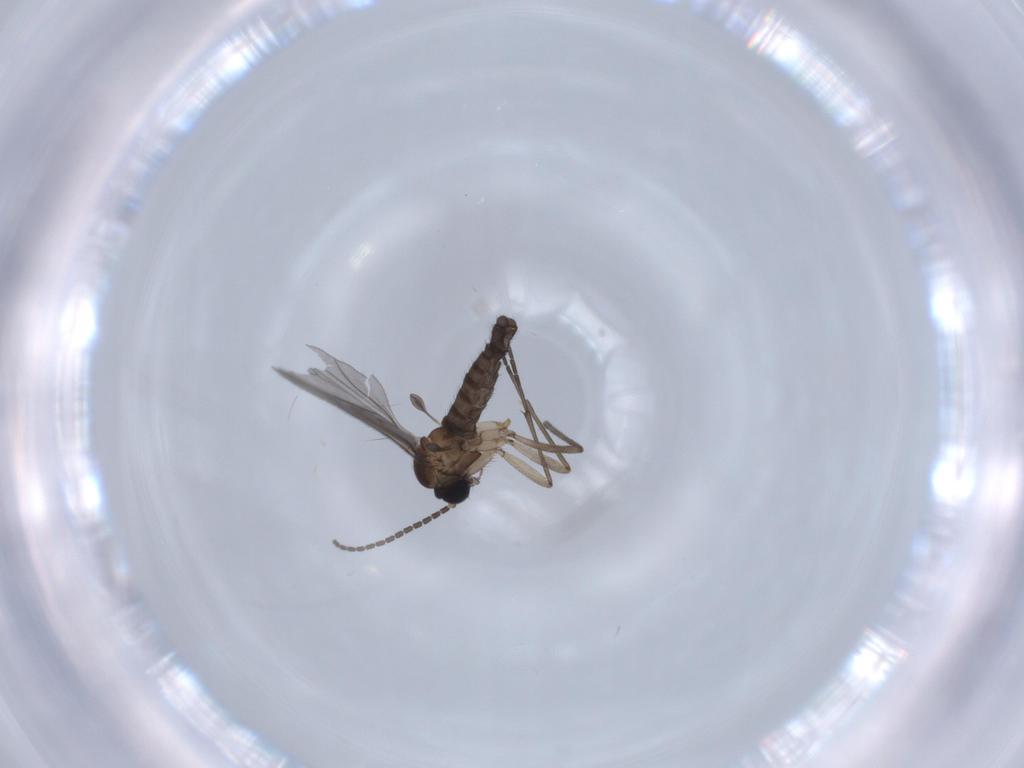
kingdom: Animalia
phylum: Arthropoda
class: Insecta
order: Diptera
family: Sciaridae
